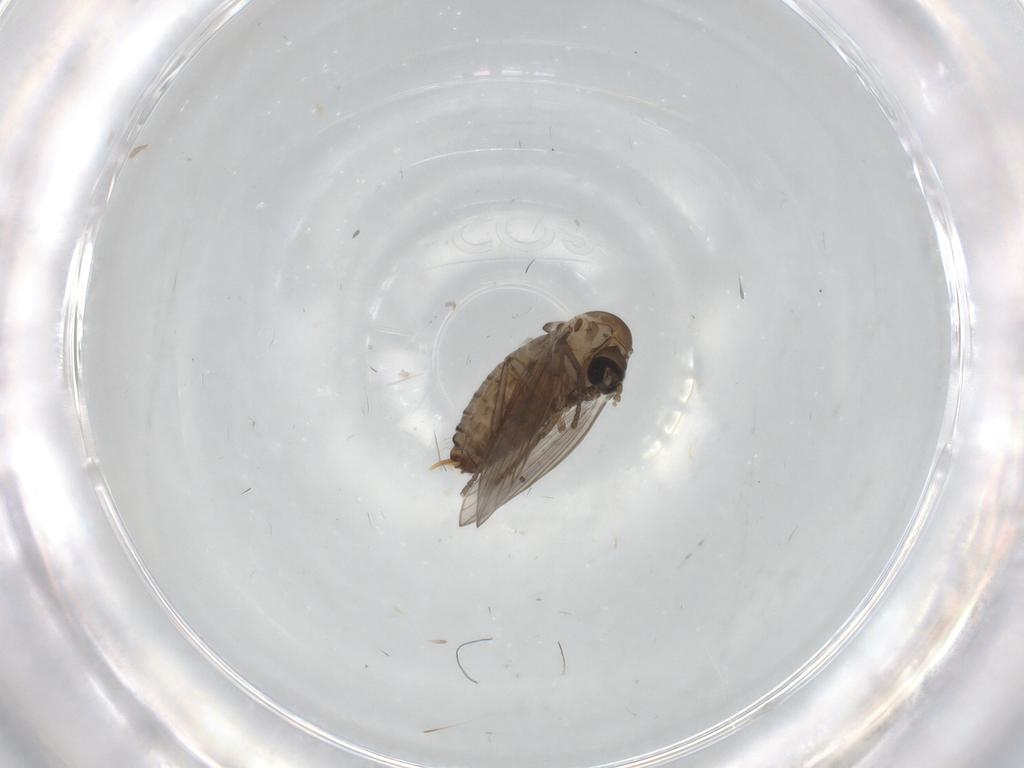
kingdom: Animalia
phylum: Arthropoda
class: Insecta
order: Diptera
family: Psychodidae
